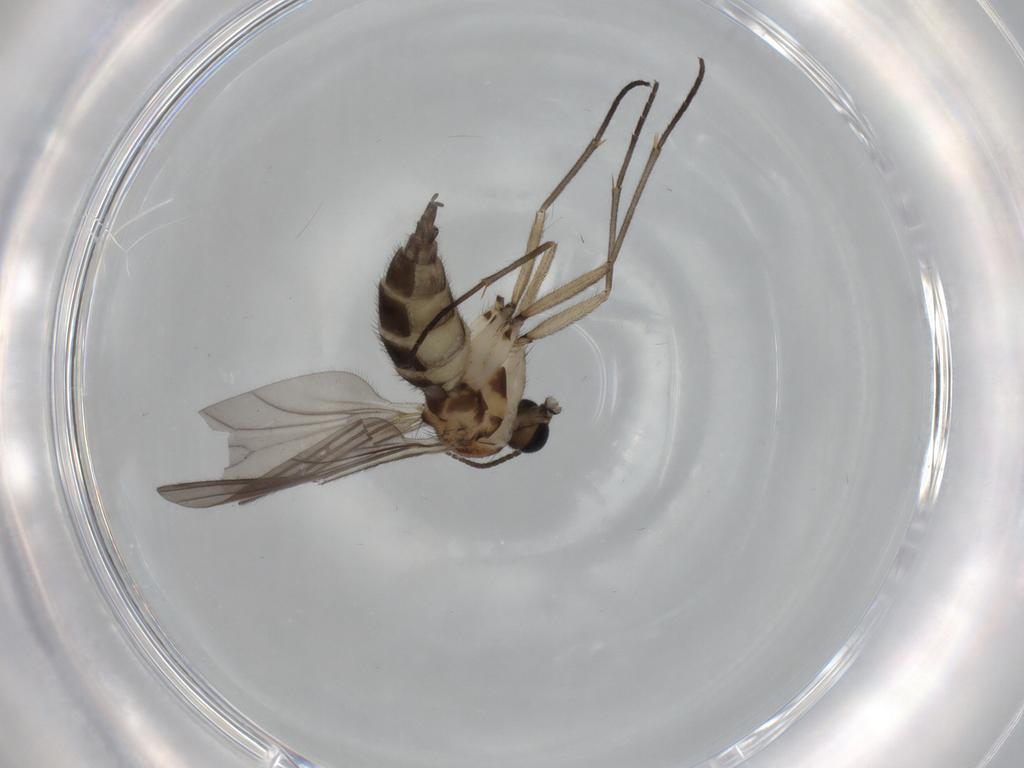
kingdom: Animalia
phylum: Arthropoda
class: Insecta
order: Diptera
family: Sciaridae
